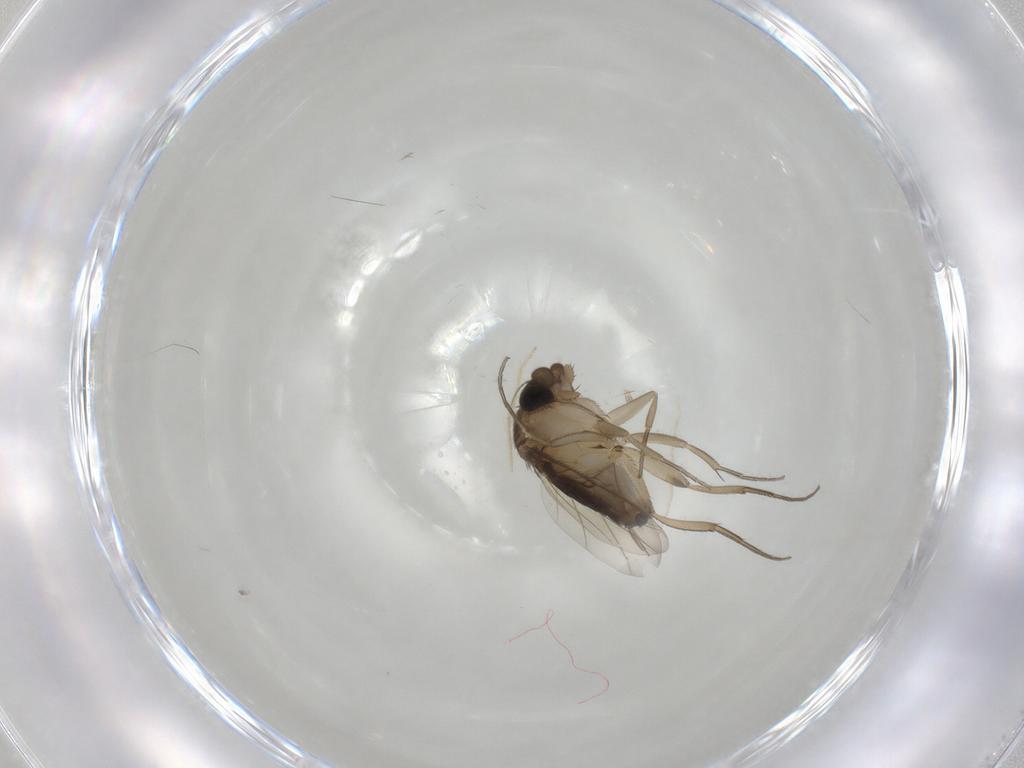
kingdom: Animalia
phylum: Arthropoda
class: Insecta
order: Diptera
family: Phoridae
